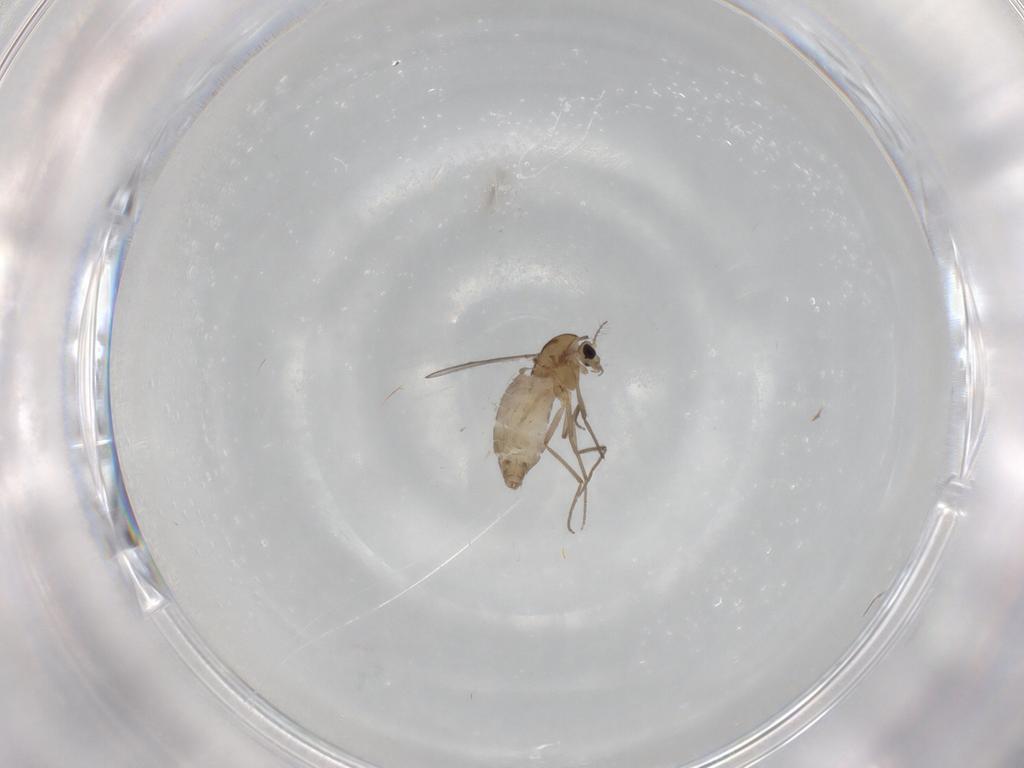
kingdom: Animalia
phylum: Arthropoda
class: Insecta
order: Diptera
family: Chironomidae
